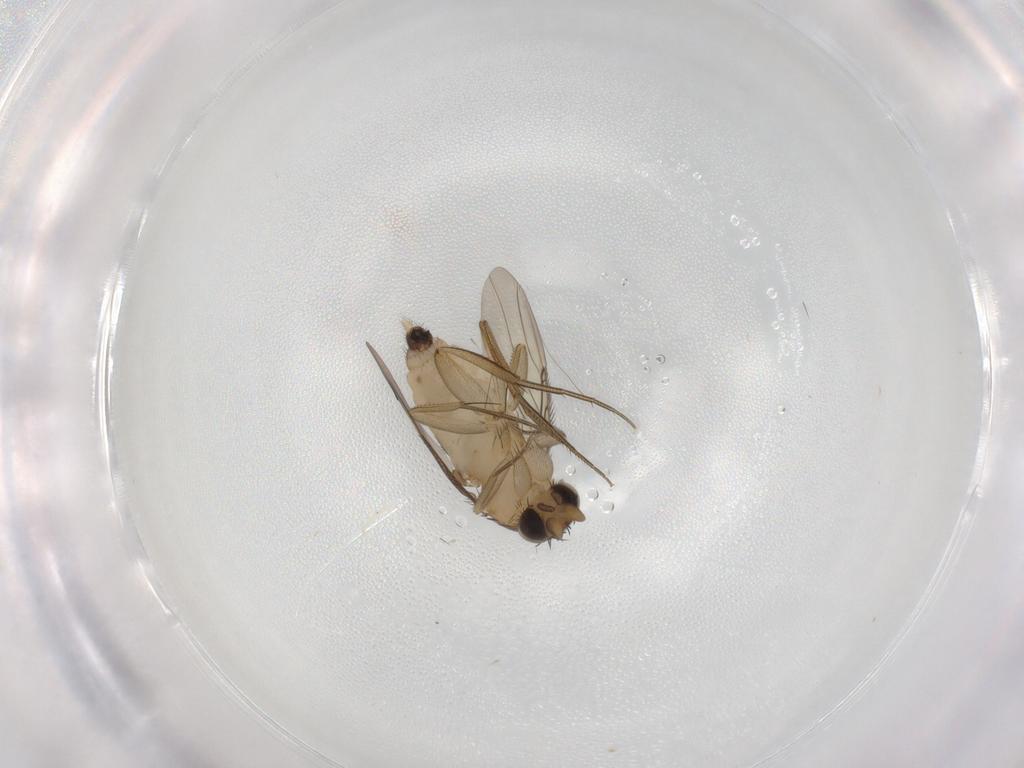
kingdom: Animalia
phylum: Arthropoda
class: Insecta
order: Diptera
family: Phoridae
